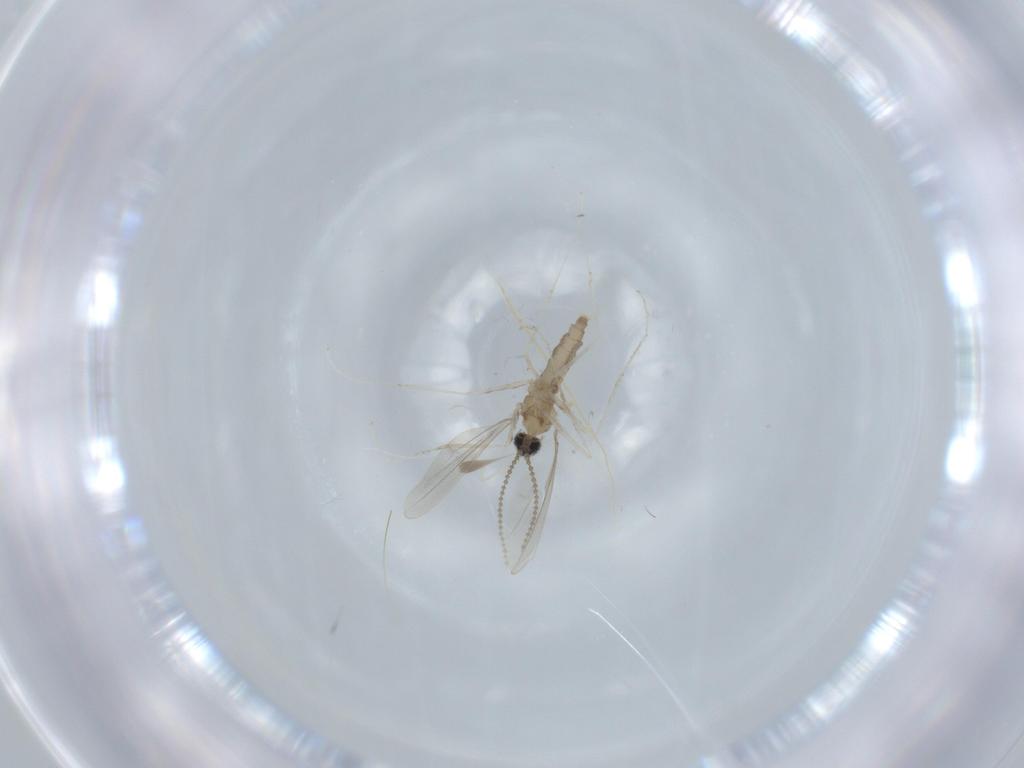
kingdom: Animalia
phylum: Arthropoda
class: Insecta
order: Diptera
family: Cecidomyiidae
